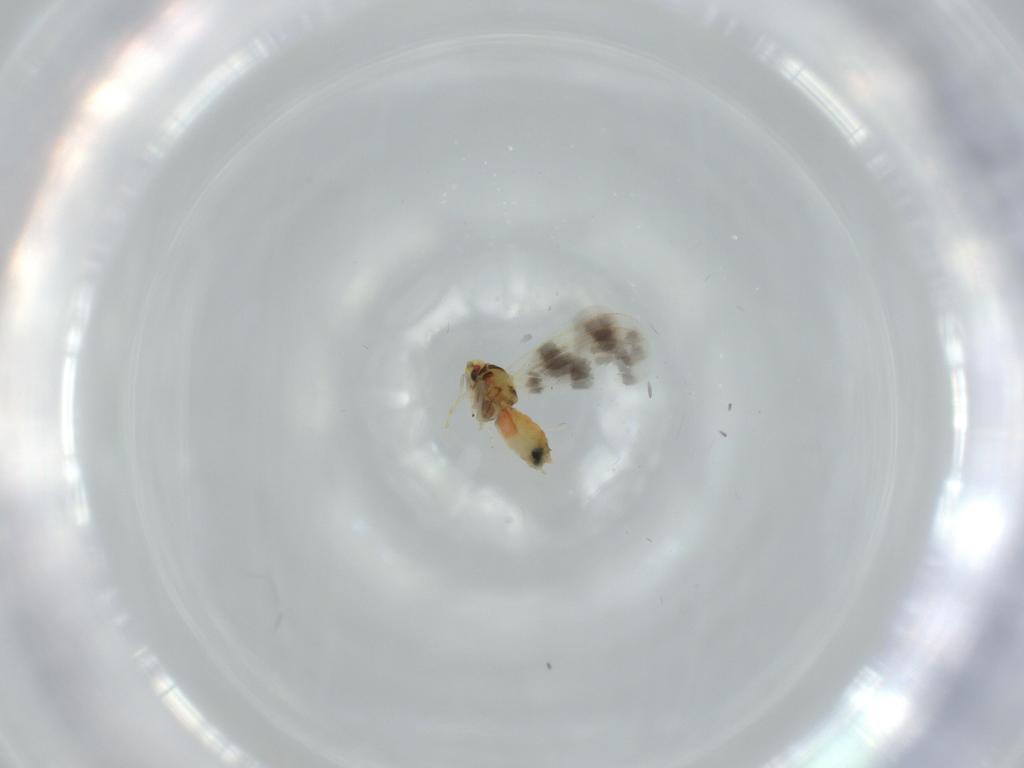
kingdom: Animalia
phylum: Arthropoda
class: Insecta
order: Hemiptera
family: Aleyrodidae
